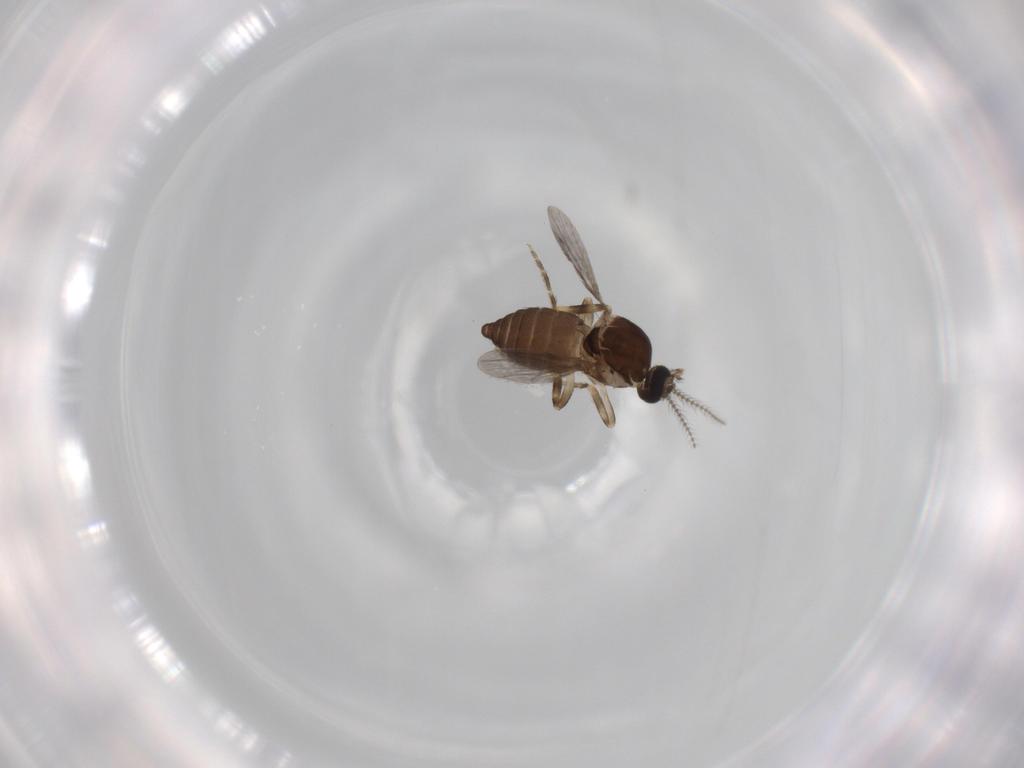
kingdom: Animalia
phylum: Arthropoda
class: Insecta
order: Diptera
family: Ceratopogonidae
